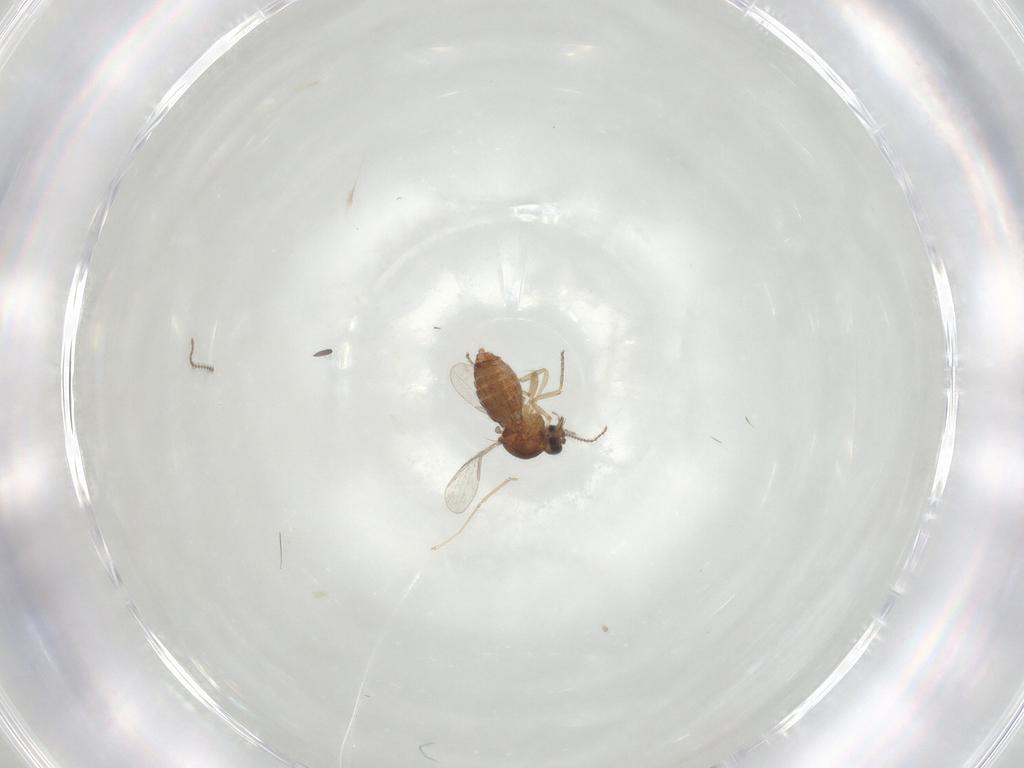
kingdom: Animalia
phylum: Arthropoda
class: Insecta
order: Diptera
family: Ceratopogonidae
